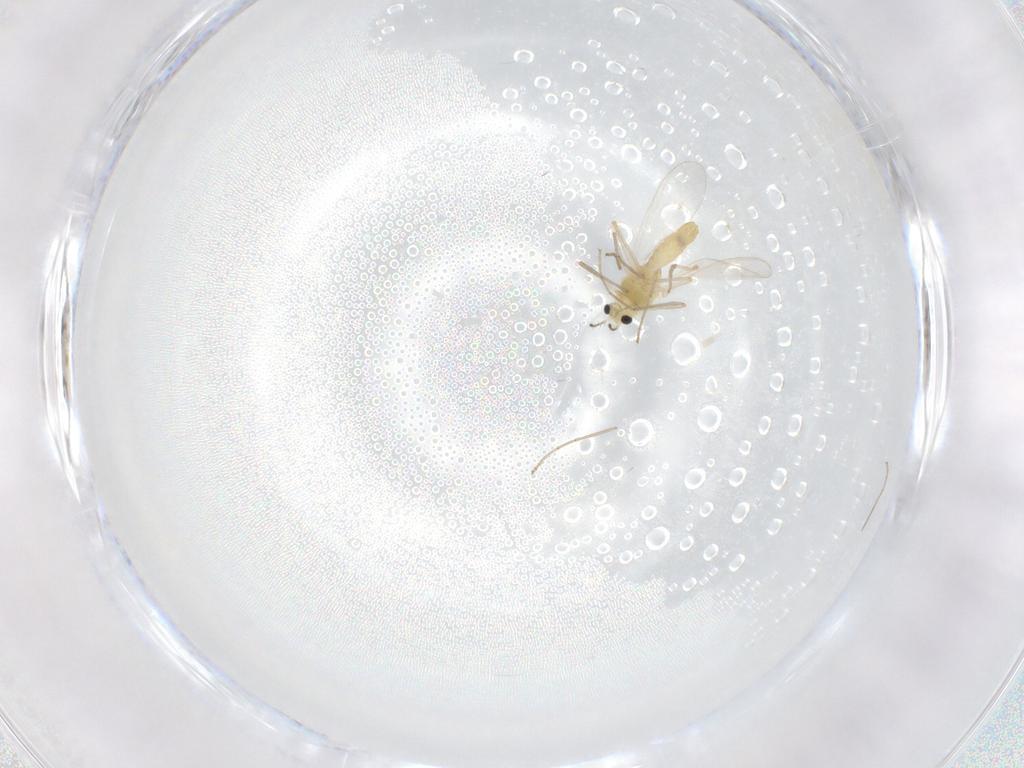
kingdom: Animalia
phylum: Arthropoda
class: Insecta
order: Diptera
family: Chironomidae
